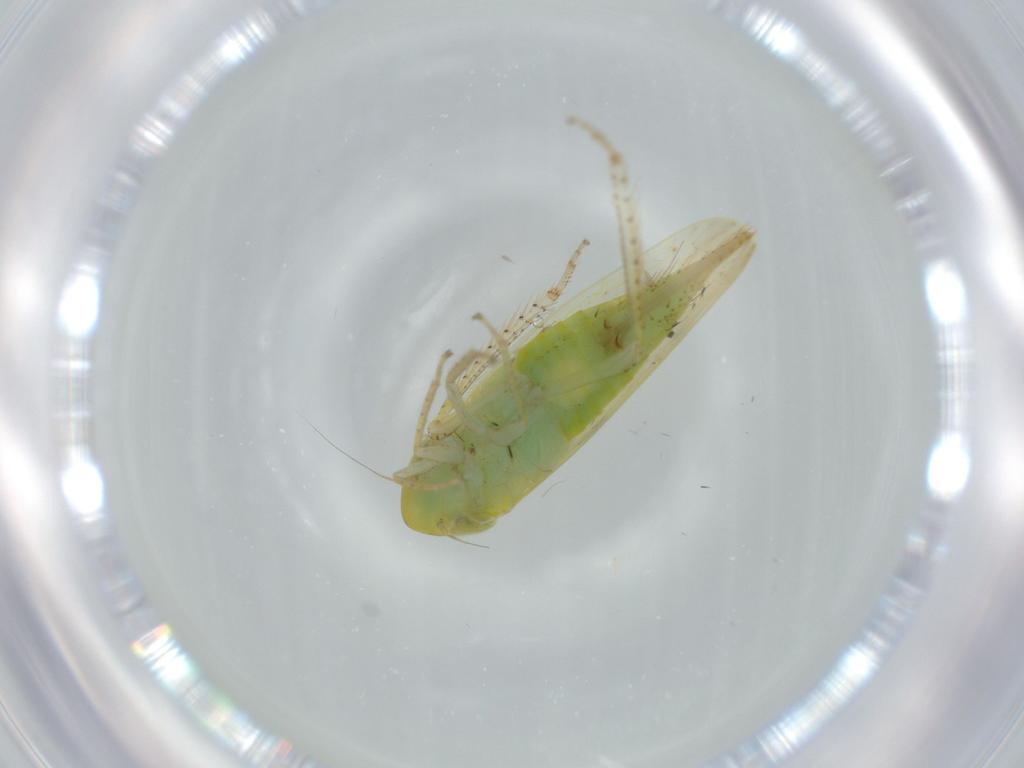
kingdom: Animalia
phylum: Arthropoda
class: Insecta
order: Hemiptera
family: Cicadellidae
